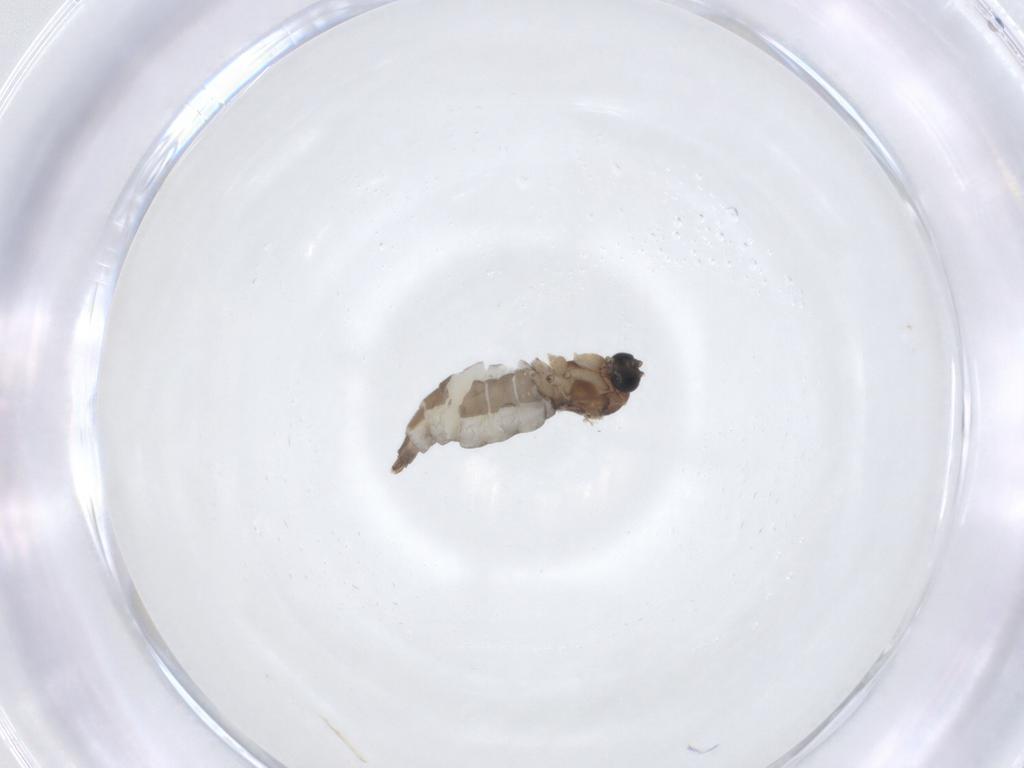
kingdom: Animalia
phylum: Arthropoda
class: Insecta
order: Diptera
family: Sciaridae
